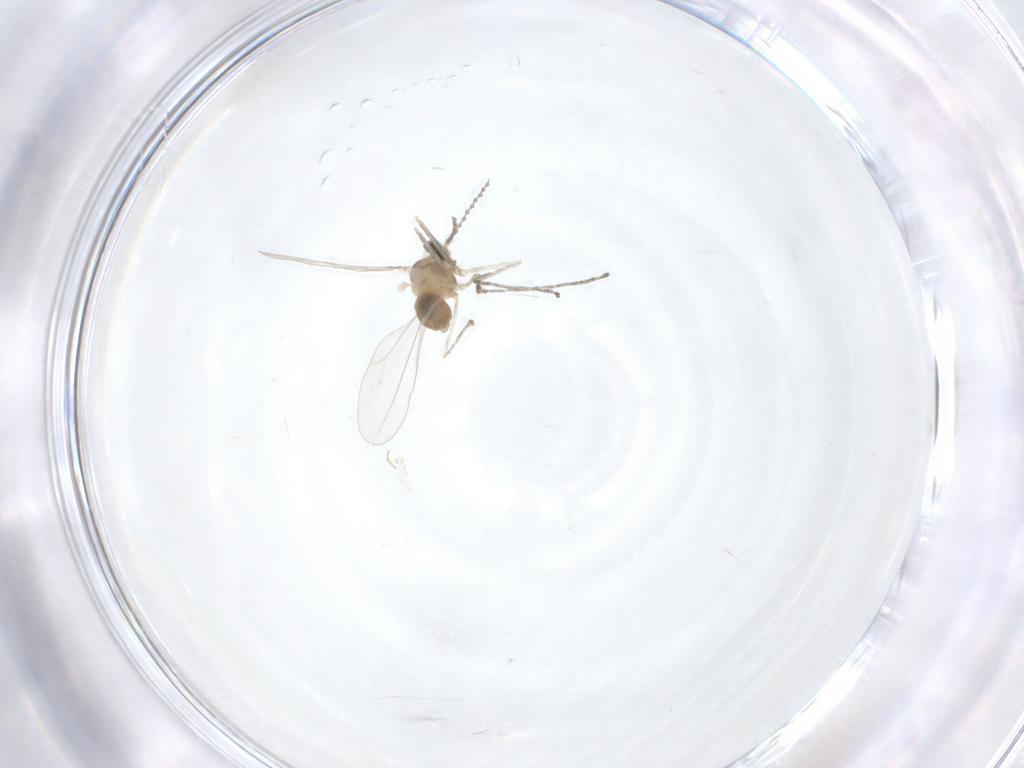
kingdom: Animalia
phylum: Arthropoda
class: Insecta
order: Diptera
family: Cecidomyiidae
